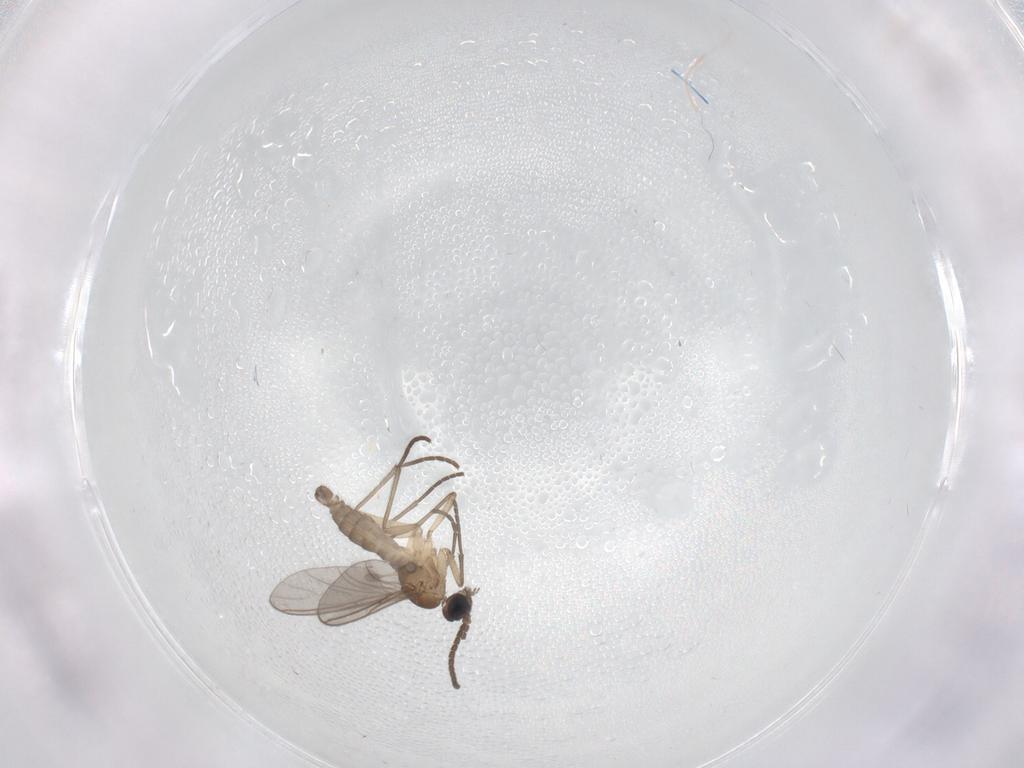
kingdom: Animalia
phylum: Arthropoda
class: Insecta
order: Diptera
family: Sciaridae
